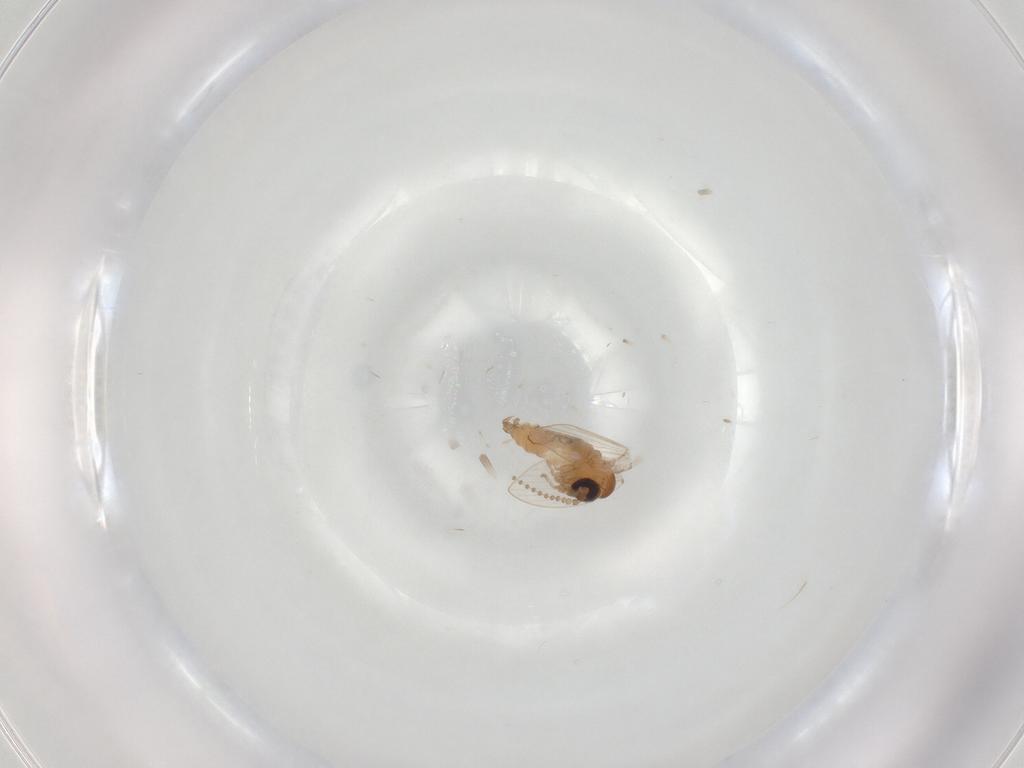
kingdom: Animalia
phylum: Arthropoda
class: Insecta
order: Diptera
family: Psychodidae
